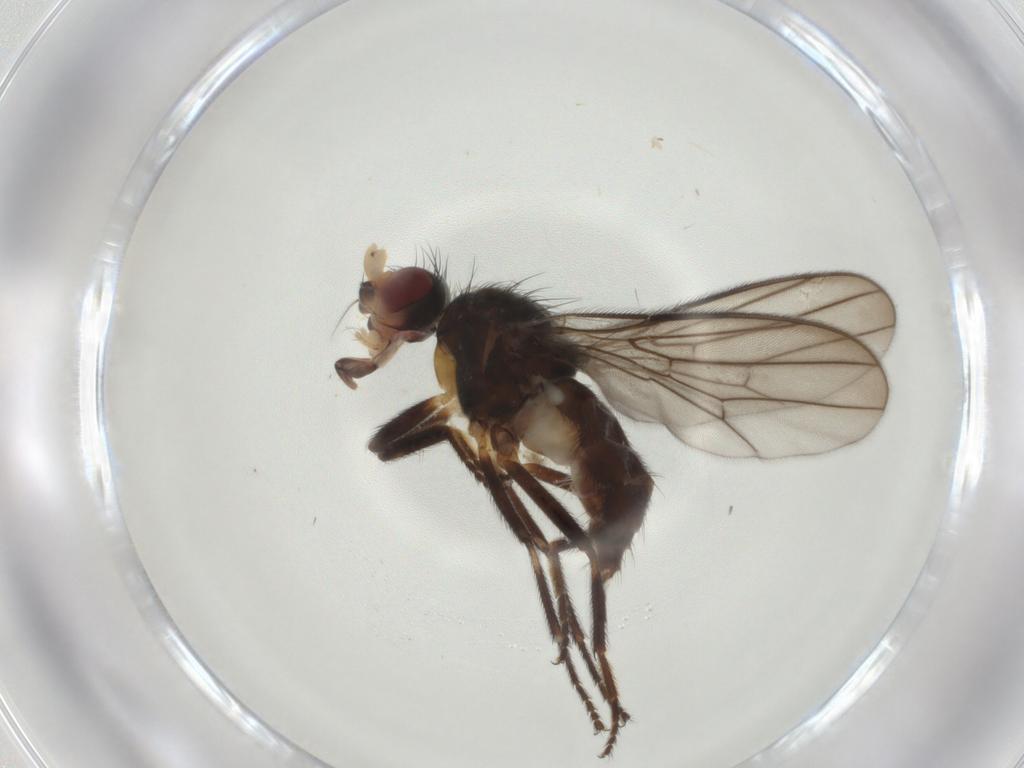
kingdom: Animalia
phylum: Arthropoda
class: Insecta
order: Diptera
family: Chloropidae
